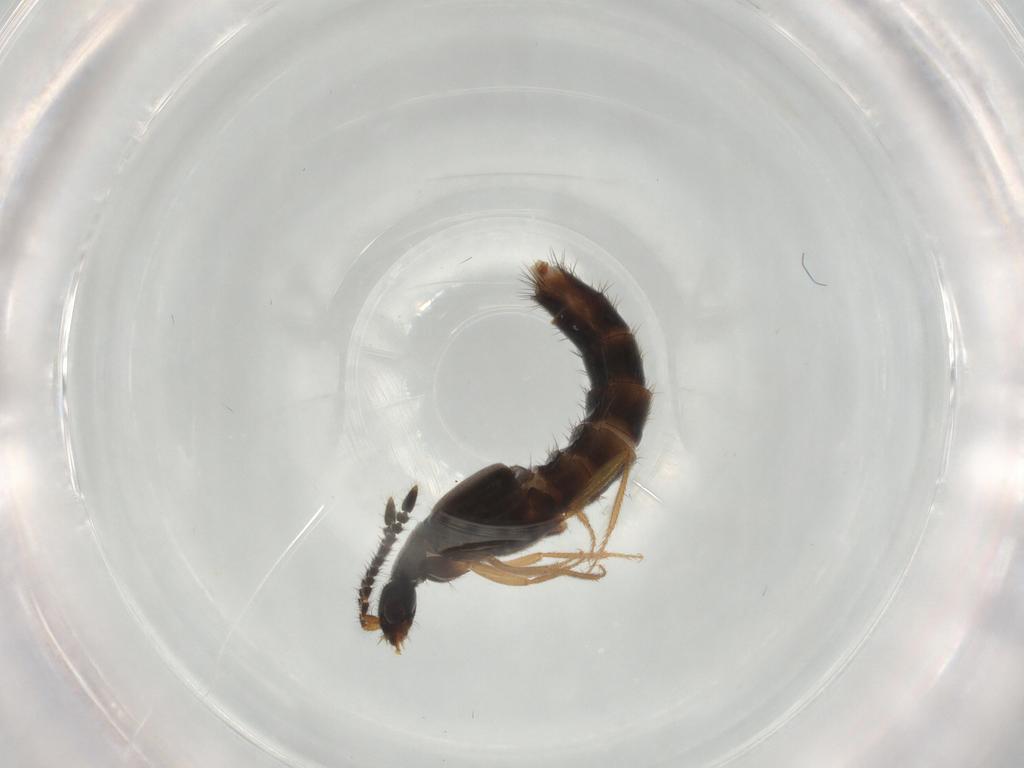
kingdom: Animalia
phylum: Arthropoda
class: Insecta
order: Coleoptera
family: Staphylinidae
